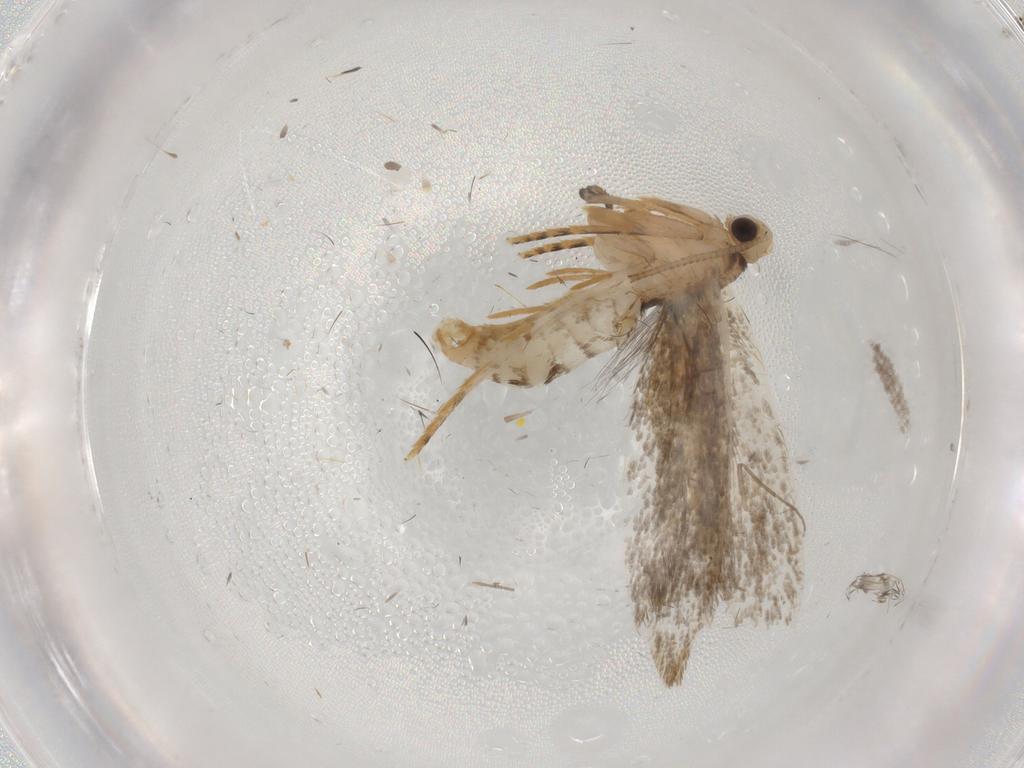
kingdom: Animalia
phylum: Arthropoda
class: Insecta
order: Lepidoptera
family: Tineidae
